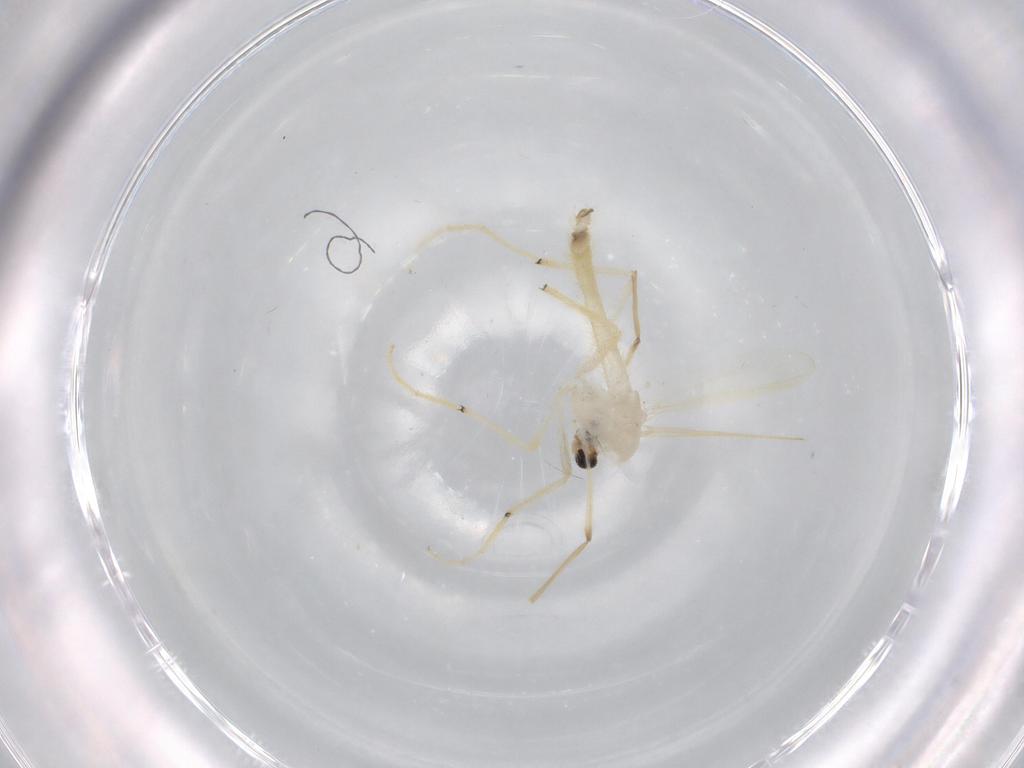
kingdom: Animalia
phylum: Arthropoda
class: Insecta
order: Diptera
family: Chironomidae
